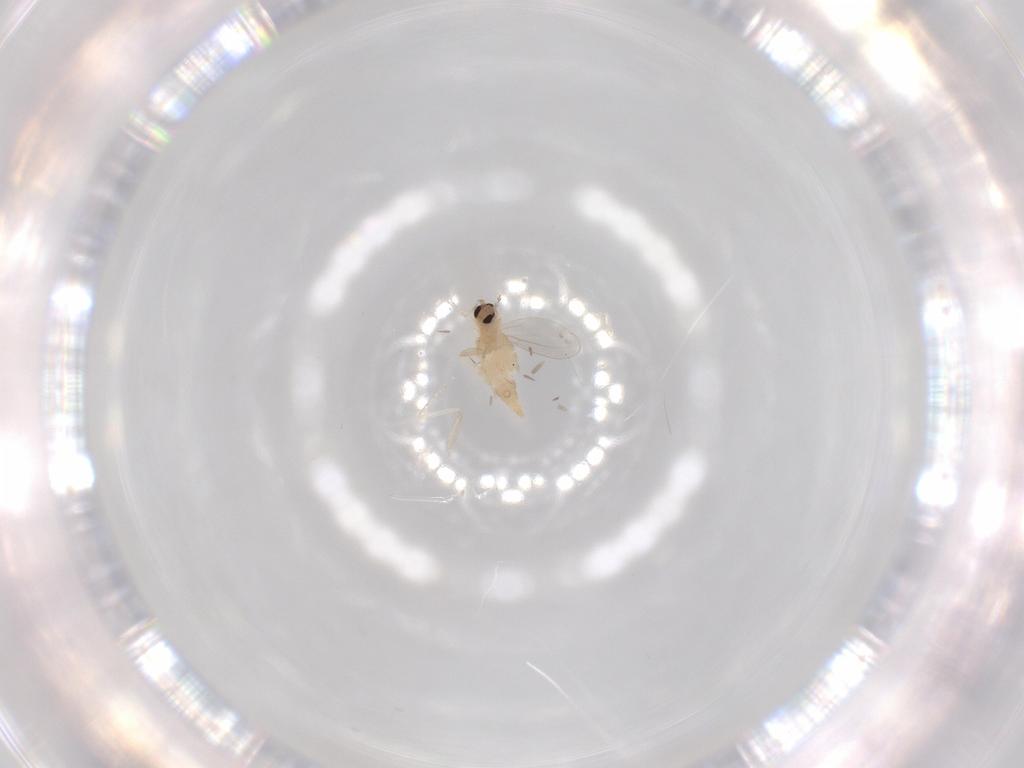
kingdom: Animalia
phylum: Arthropoda
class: Insecta
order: Diptera
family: Cecidomyiidae
